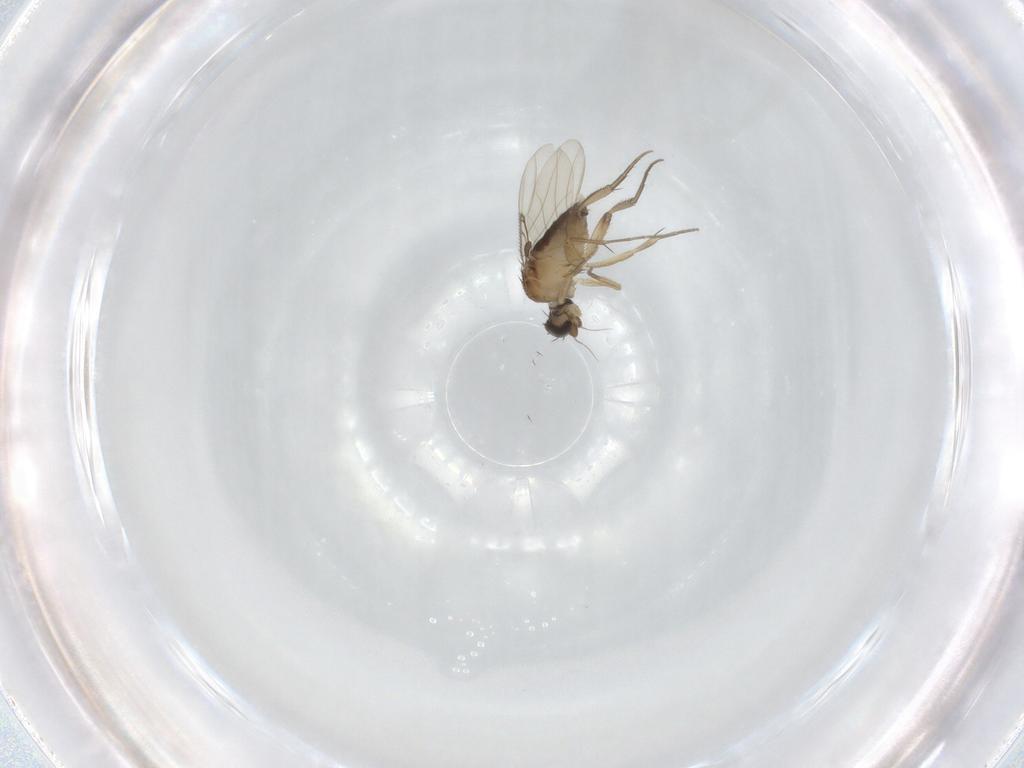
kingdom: Animalia
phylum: Arthropoda
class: Insecta
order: Diptera
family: Phoridae
